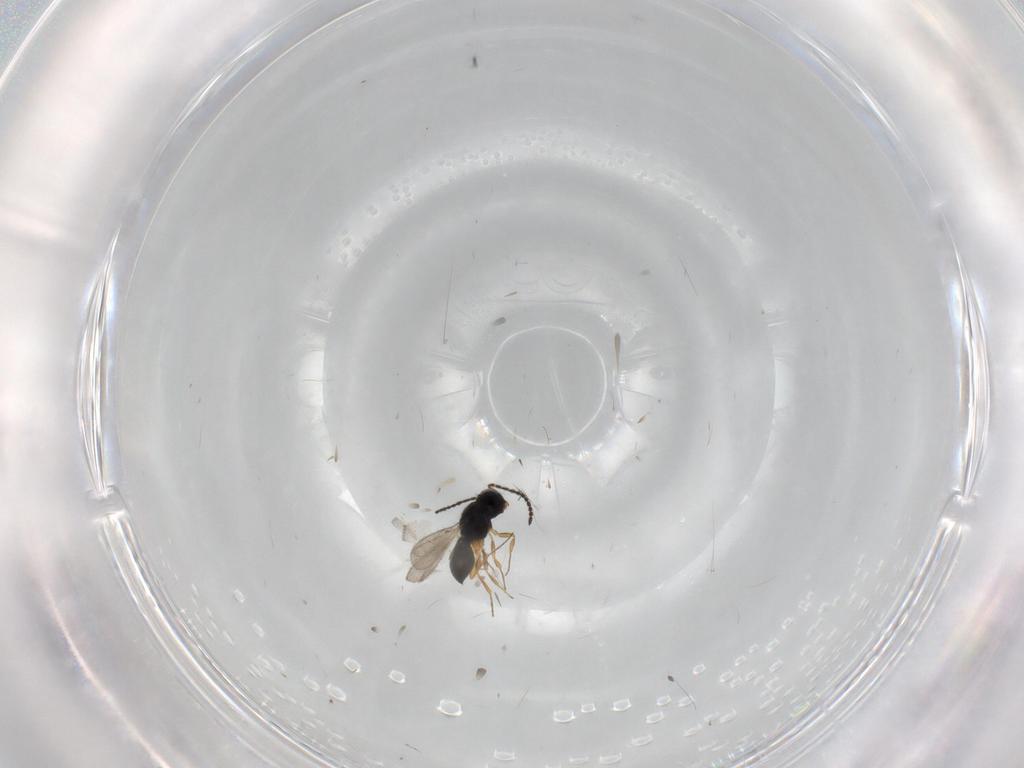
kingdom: Animalia
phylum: Arthropoda
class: Insecta
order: Hymenoptera
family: Scelionidae
